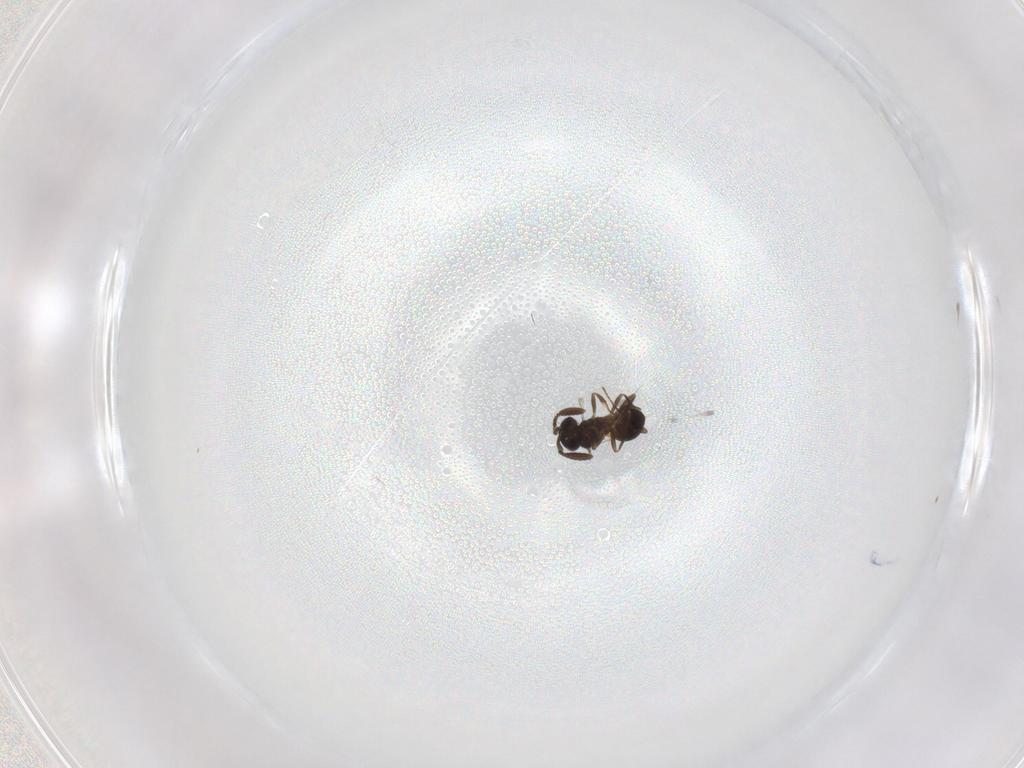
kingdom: Animalia
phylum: Arthropoda
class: Insecta
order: Hymenoptera
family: Scelionidae
